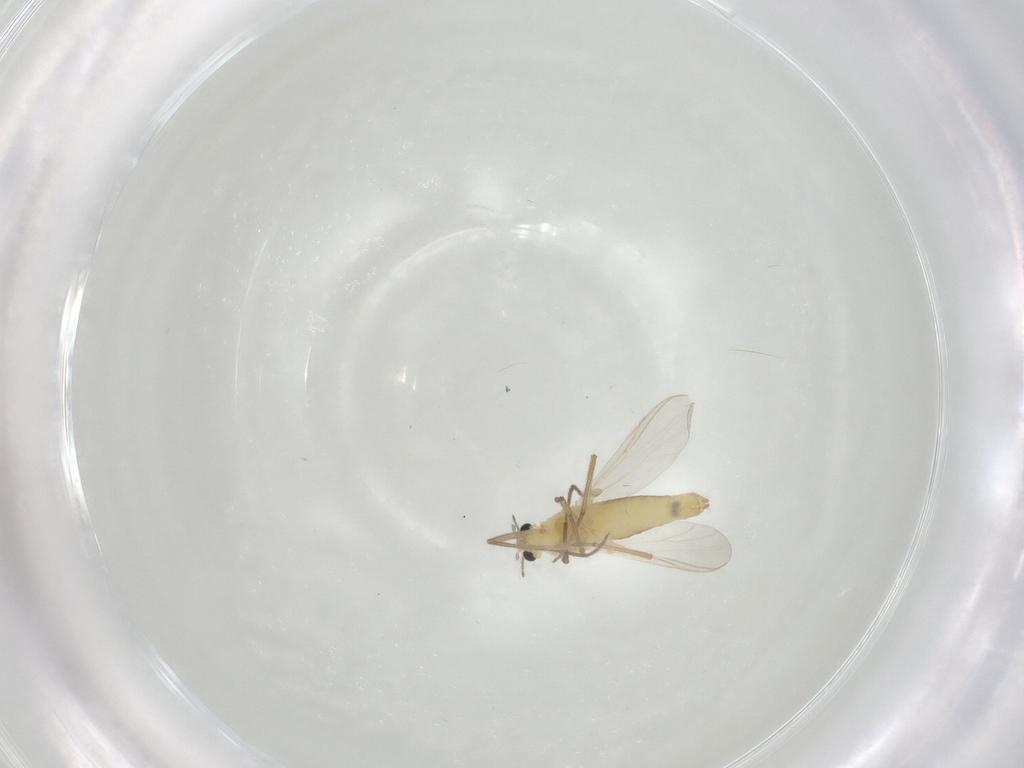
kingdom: Animalia
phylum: Arthropoda
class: Insecta
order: Diptera
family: Chironomidae
